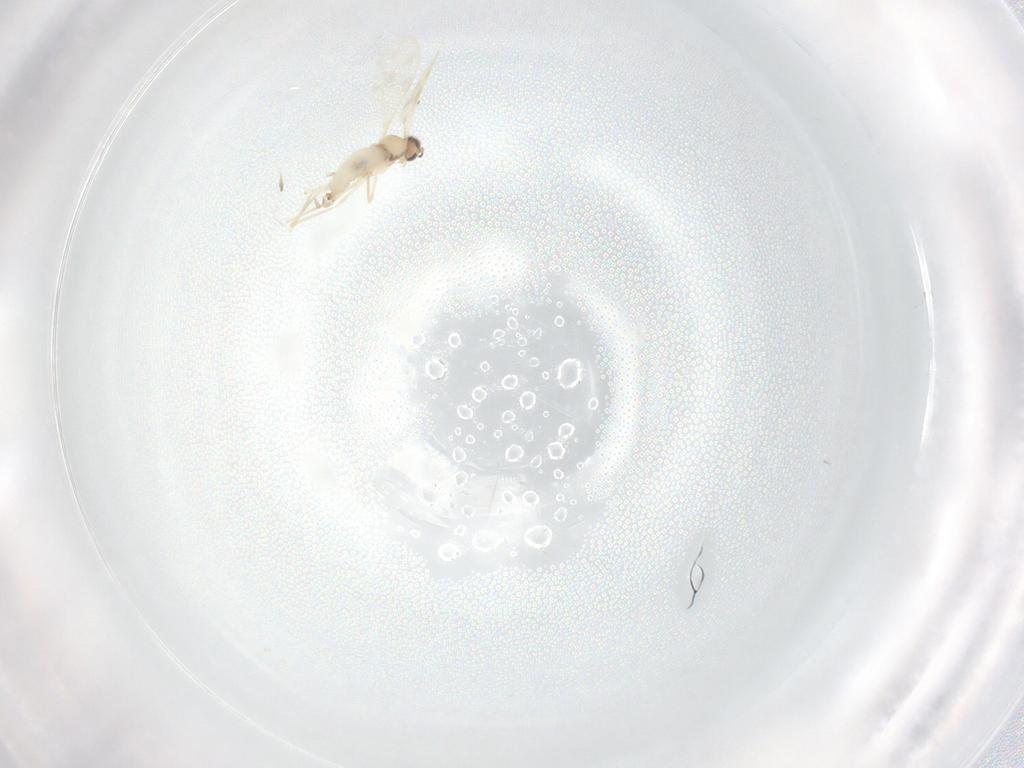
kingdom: Animalia
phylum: Arthropoda
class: Insecta
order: Diptera
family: Cecidomyiidae
